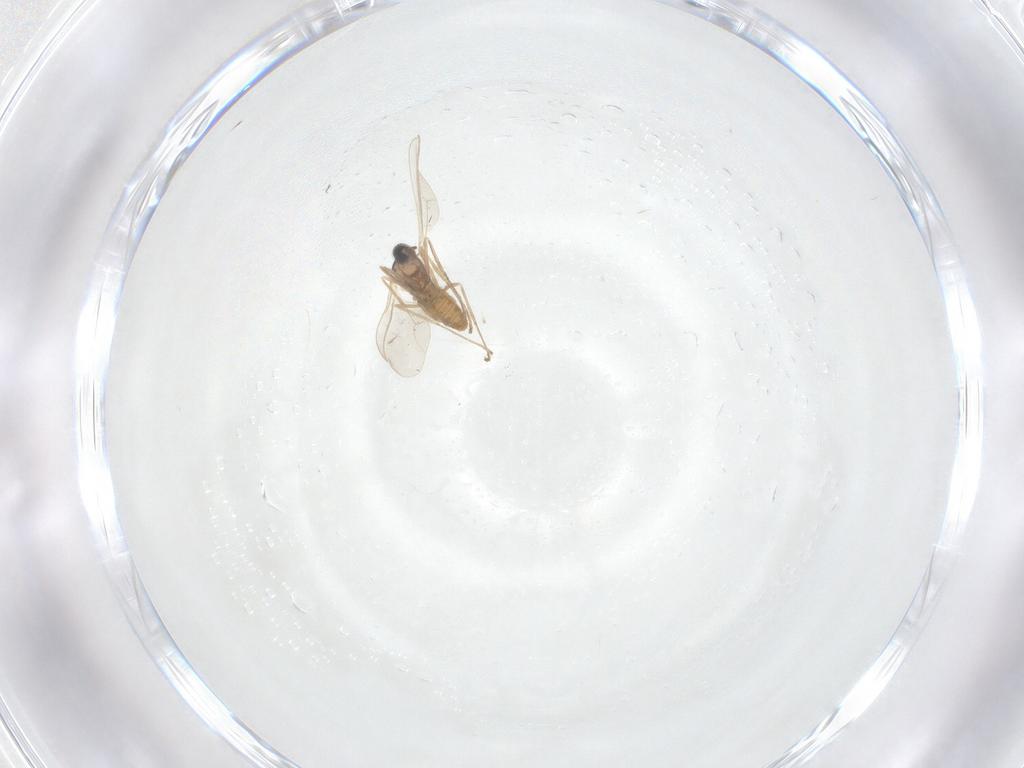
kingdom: Animalia
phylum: Arthropoda
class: Insecta
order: Diptera
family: Cecidomyiidae
